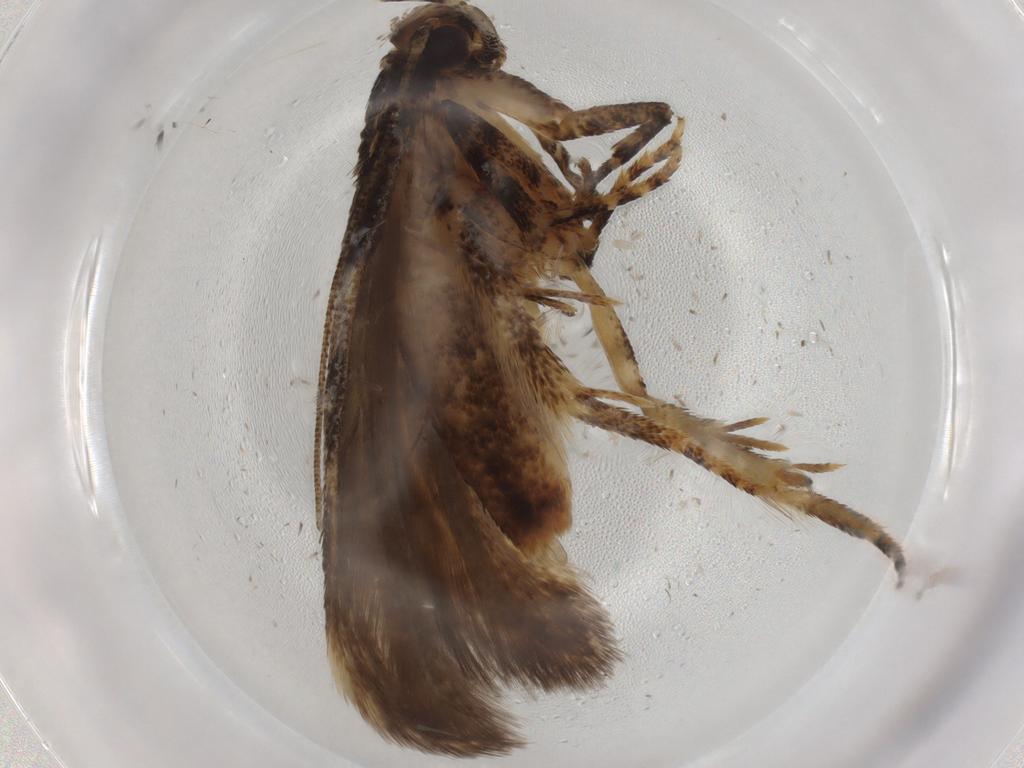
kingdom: Animalia
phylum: Arthropoda
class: Insecta
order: Lepidoptera
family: Gelechiidae
